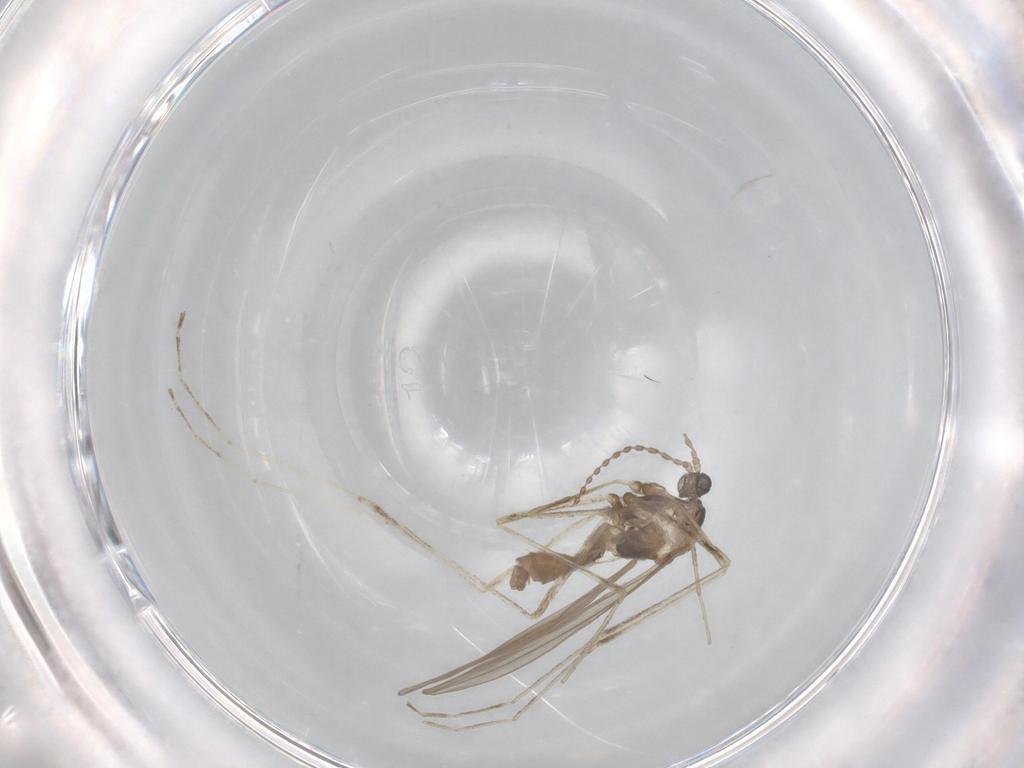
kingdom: Animalia
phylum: Arthropoda
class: Insecta
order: Diptera
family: Cecidomyiidae
